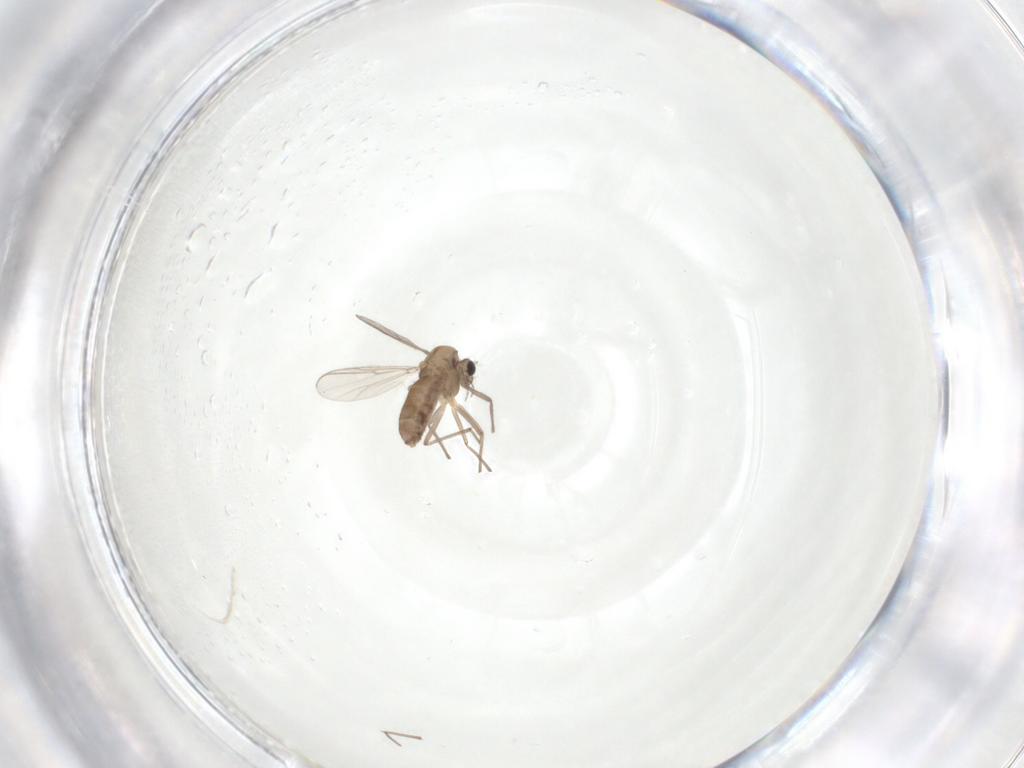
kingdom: Animalia
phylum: Arthropoda
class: Insecta
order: Diptera
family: Chironomidae
